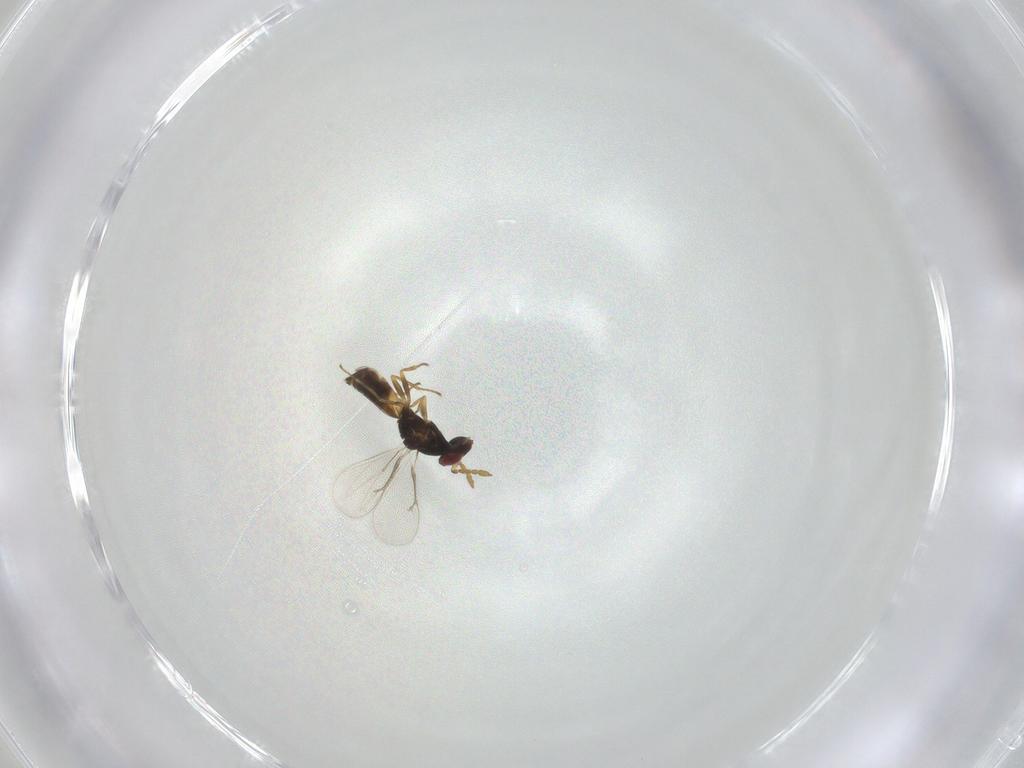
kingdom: Animalia
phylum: Arthropoda
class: Insecta
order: Hymenoptera
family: Eulophidae
